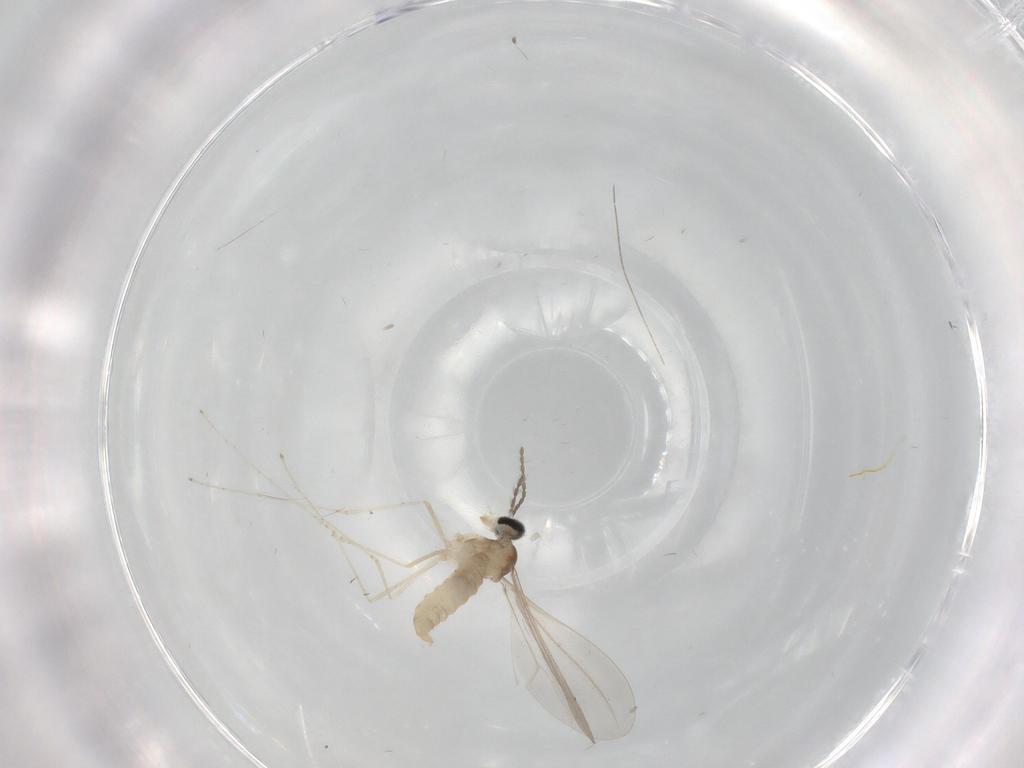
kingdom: Animalia
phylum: Arthropoda
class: Insecta
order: Diptera
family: Cecidomyiidae
